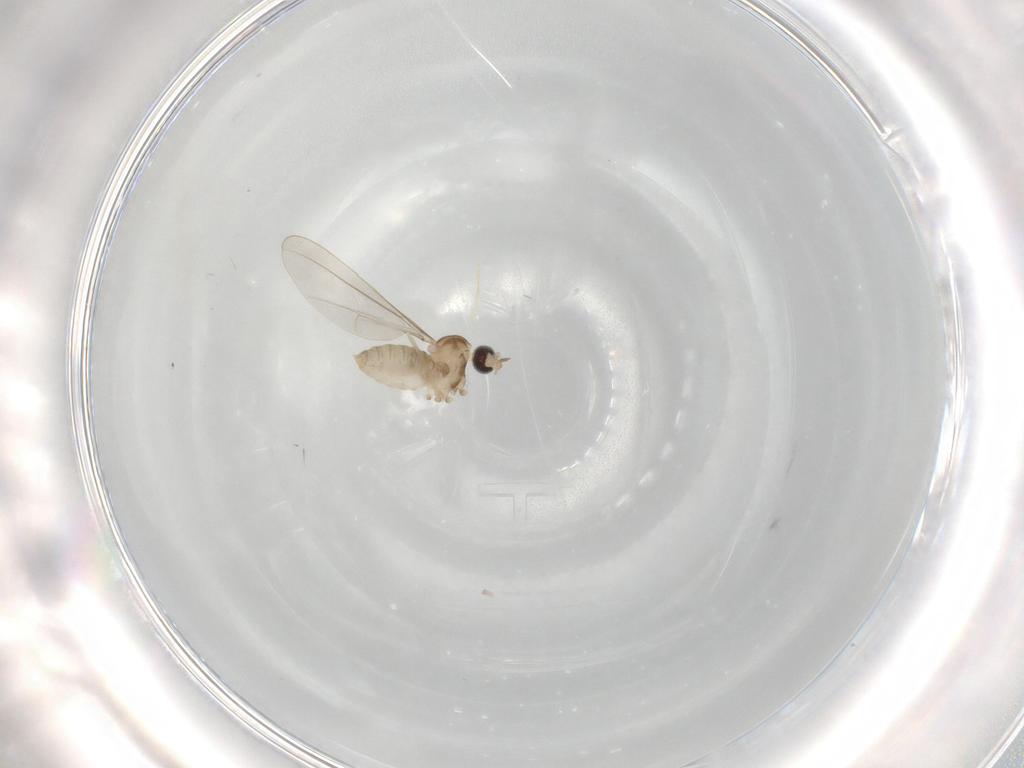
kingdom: Animalia
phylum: Arthropoda
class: Insecta
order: Diptera
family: Cecidomyiidae
